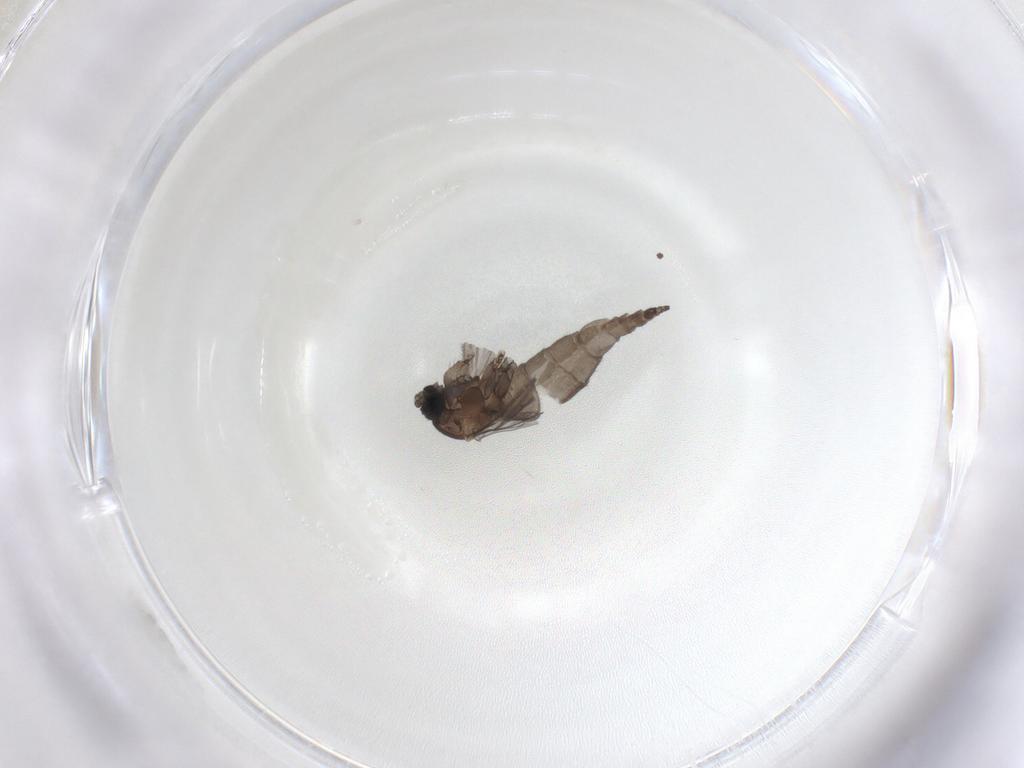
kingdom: Animalia
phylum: Arthropoda
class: Insecta
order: Diptera
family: Sciaridae
